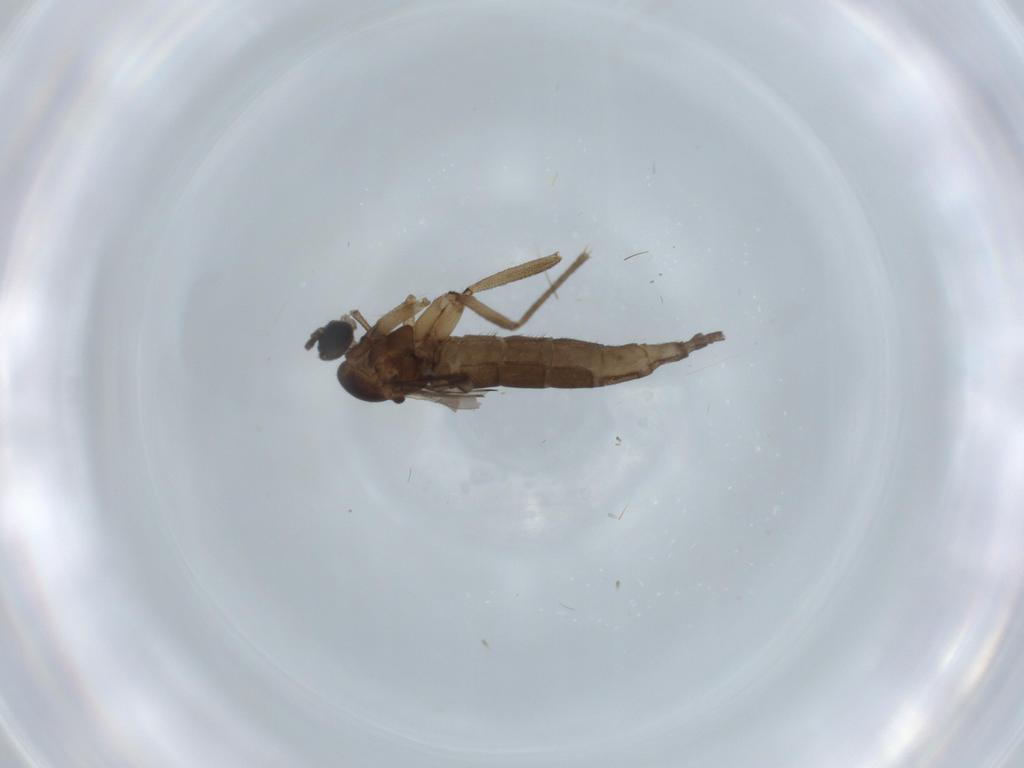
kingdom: Animalia
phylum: Arthropoda
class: Insecta
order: Diptera
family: Sciaridae
